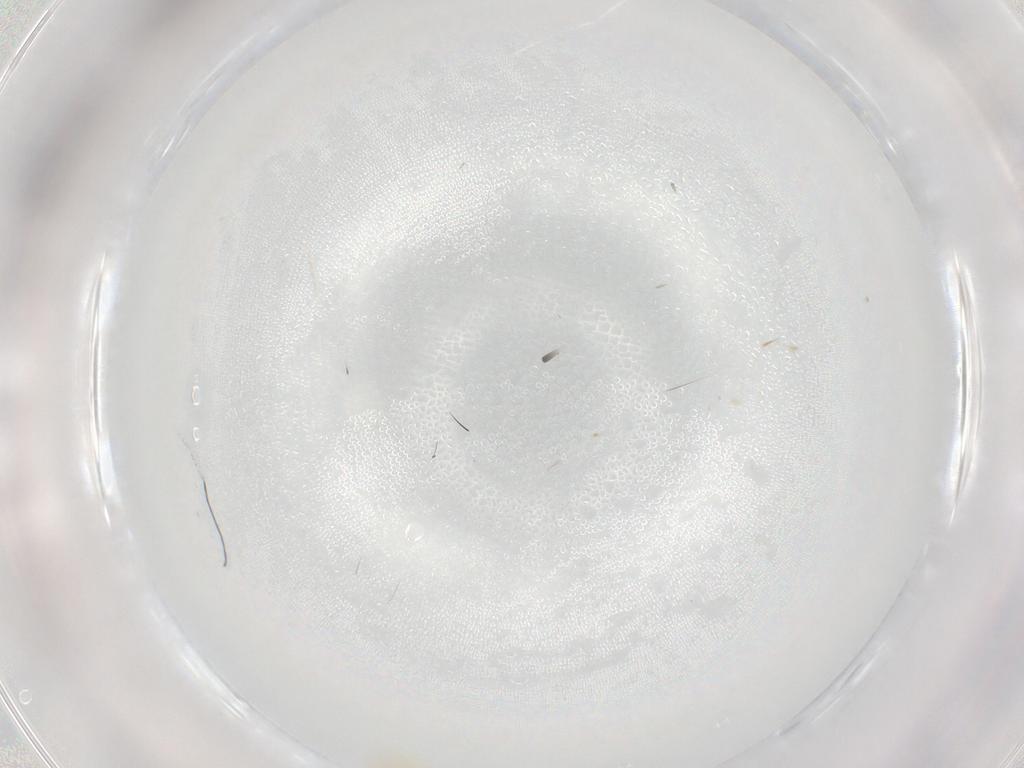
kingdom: Animalia
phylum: Arthropoda
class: Insecta
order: Hemiptera
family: Aleyrodidae
